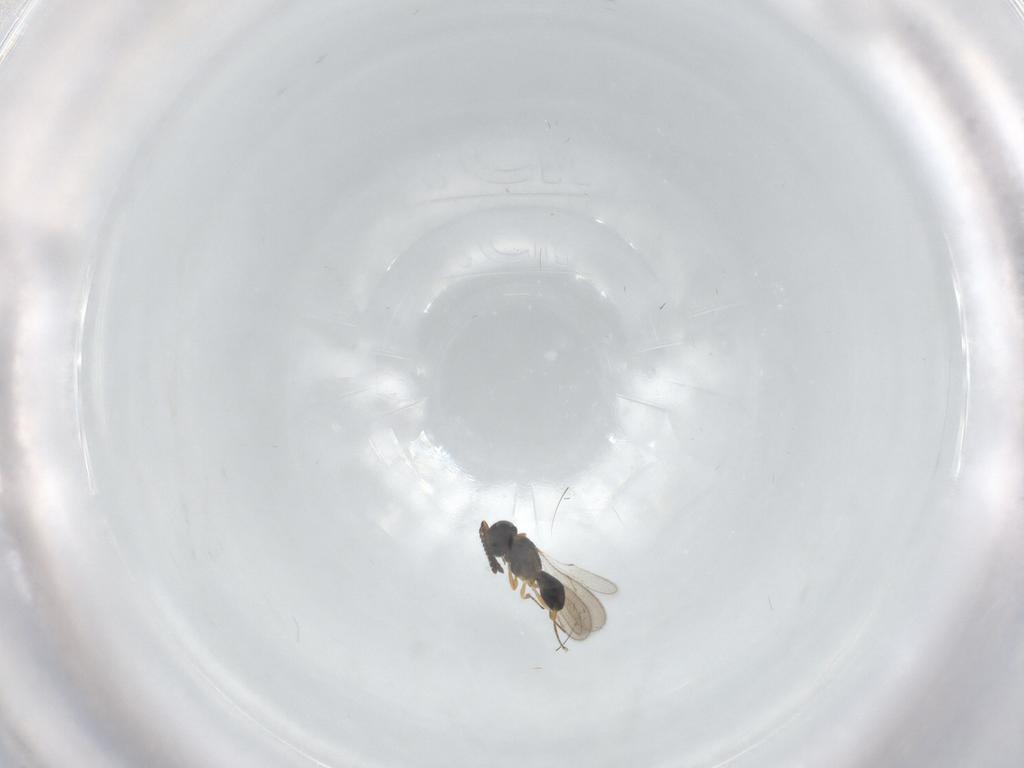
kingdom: Animalia
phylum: Arthropoda
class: Insecta
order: Hymenoptera
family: Scelionidae
